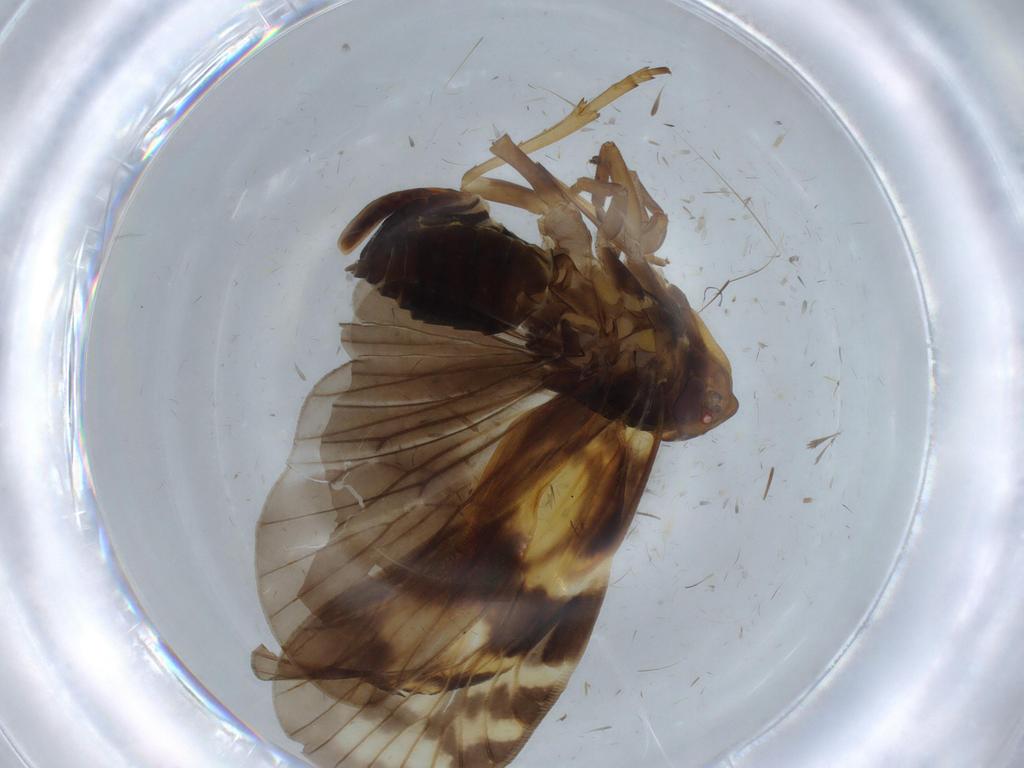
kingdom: Animalia
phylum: Arthropoda
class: Insecta
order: Hemiptera
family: Cixiidae
